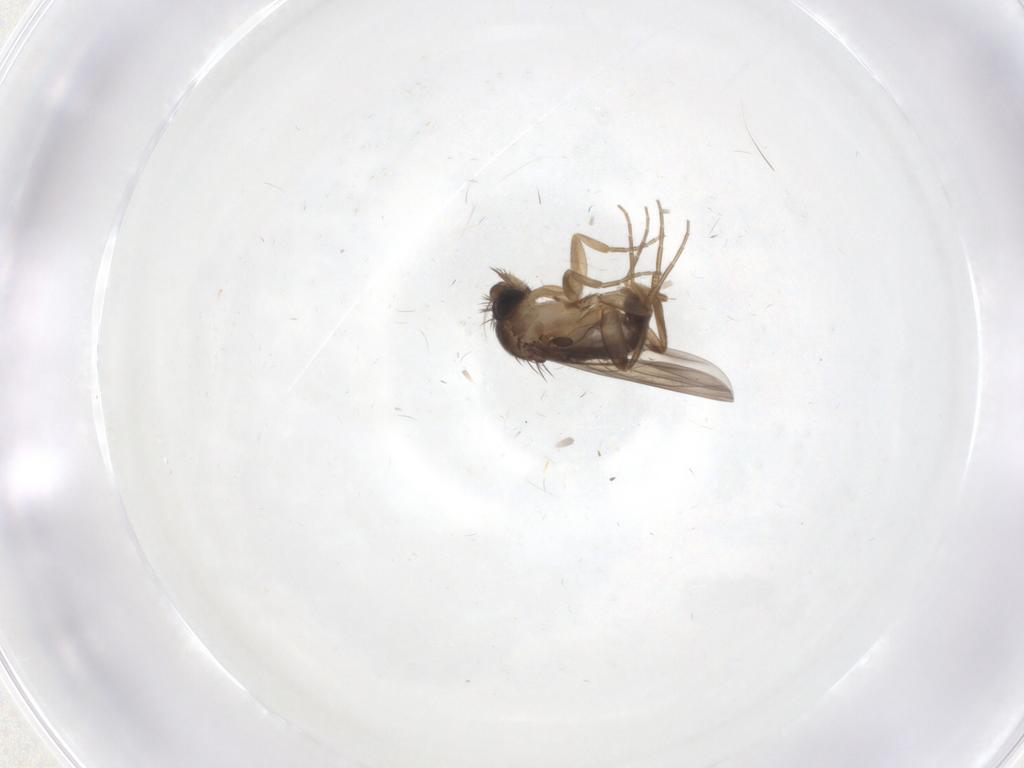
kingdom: Animalia
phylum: Arthropoda
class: Insecta
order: Diptera
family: Phoridae
